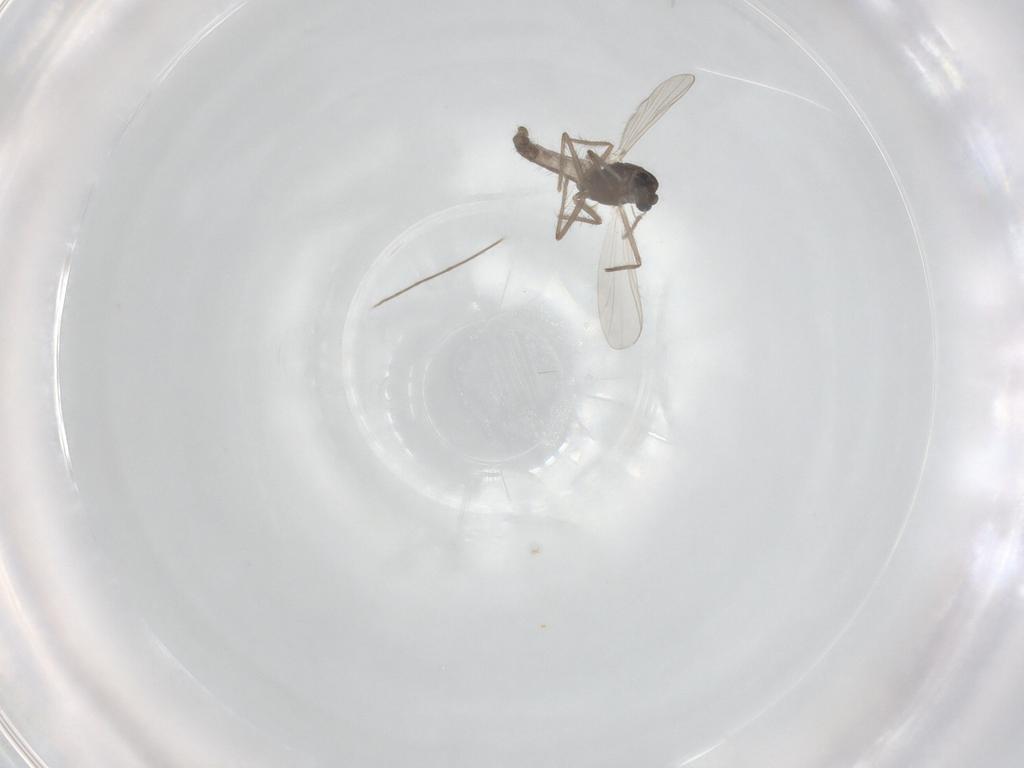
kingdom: Animalia
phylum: Arthropoda
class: Insecta
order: Diptera
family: Chironomidae
